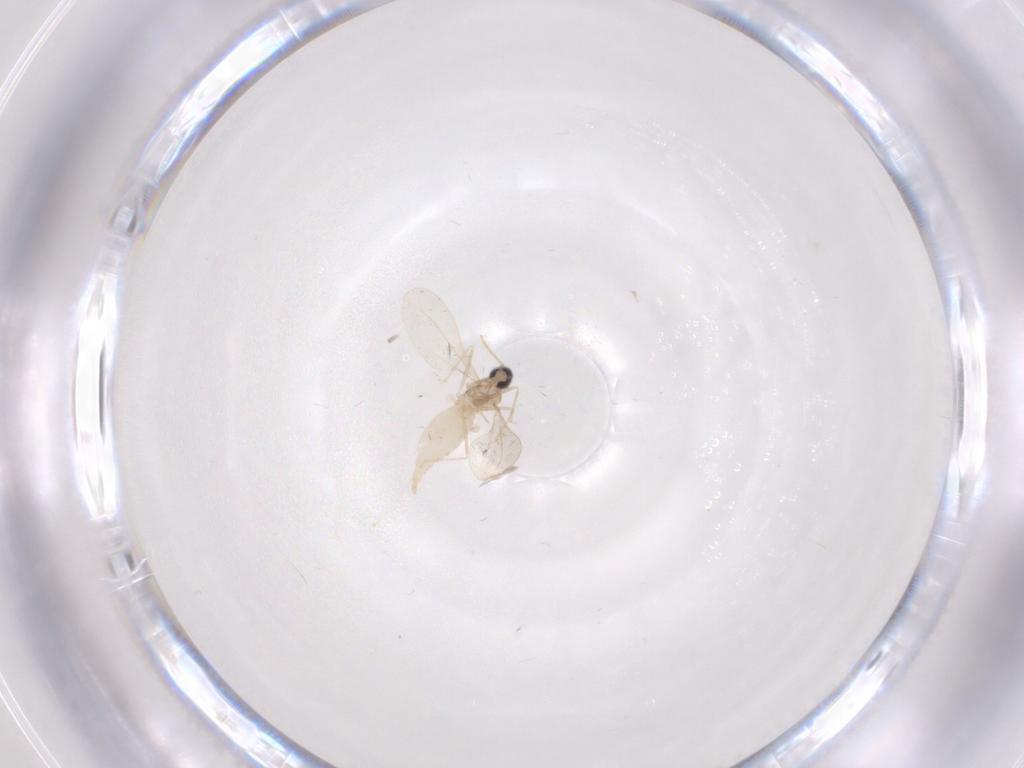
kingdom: Animalia
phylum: Arthropoda
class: Insecta
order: Diptera
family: Cecidomyiidae
